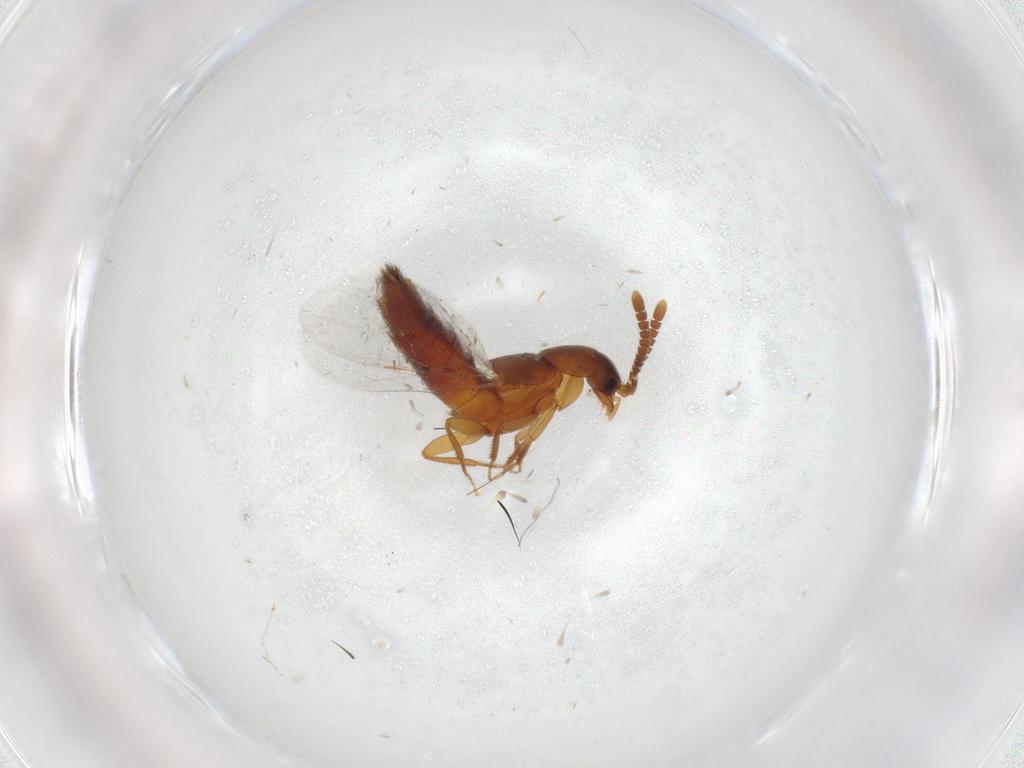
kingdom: Animalia
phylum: Arthropoda
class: Insecta
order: Coleoptera
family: Staphylinidae
